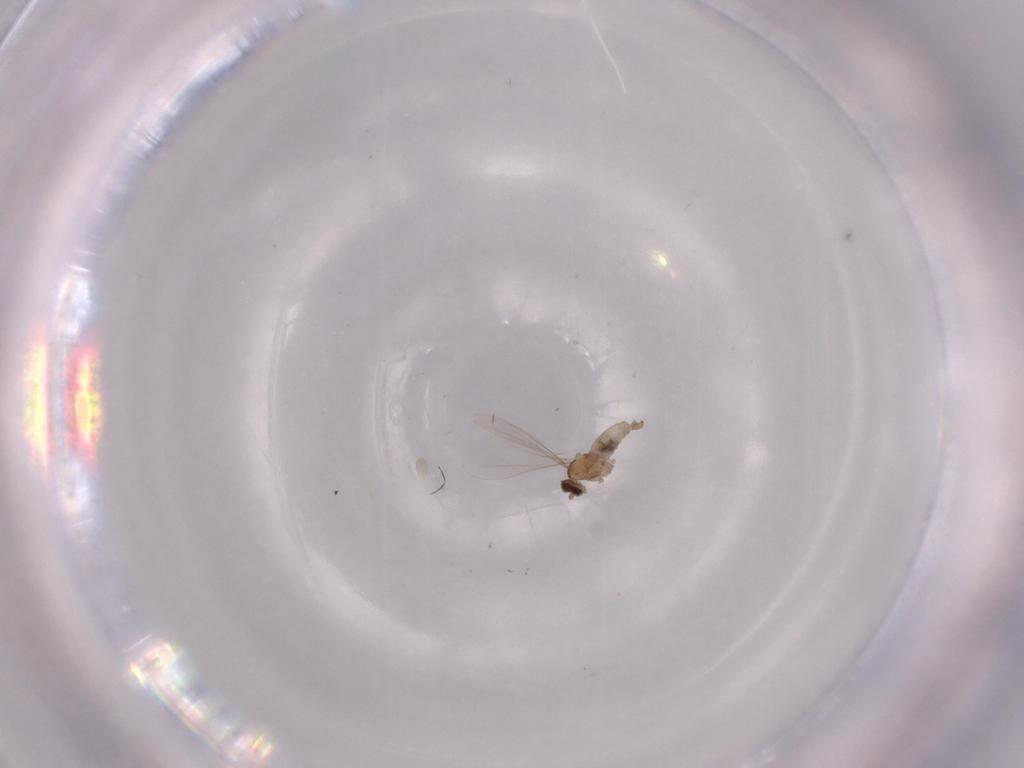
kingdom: Animalia
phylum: Arthropoda
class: Insecta
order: Diptera
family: Cecidomyiidae
